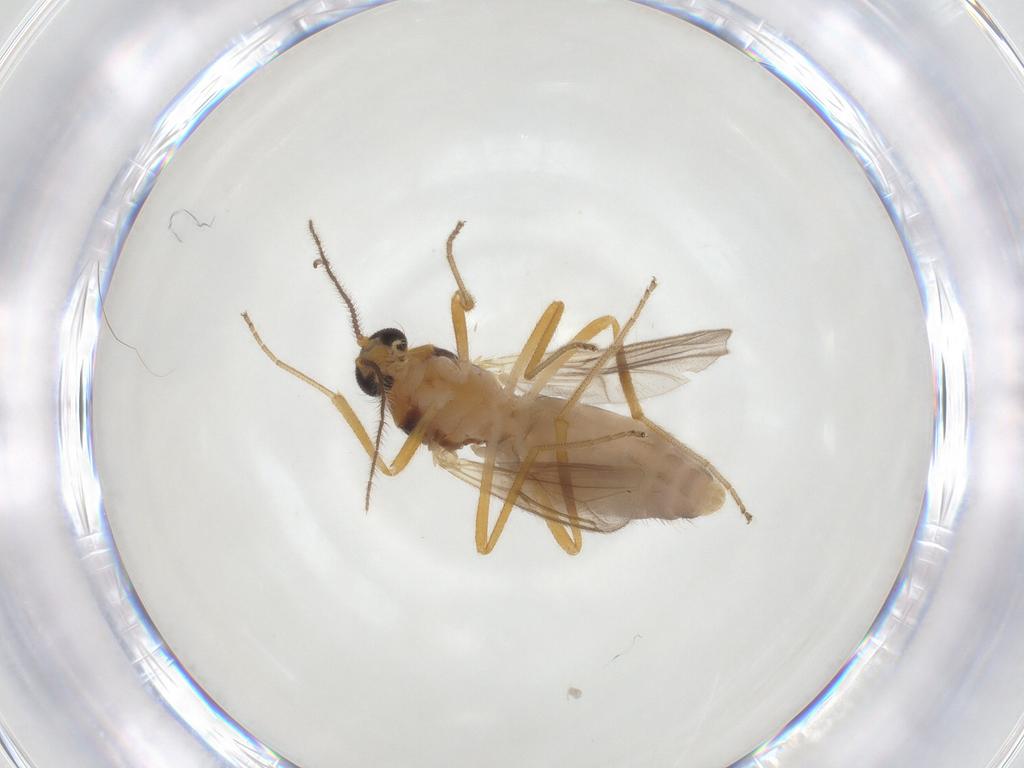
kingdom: Animalia
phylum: Arthropoda
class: Insecta
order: Diptera
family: Ceratopogonidae
